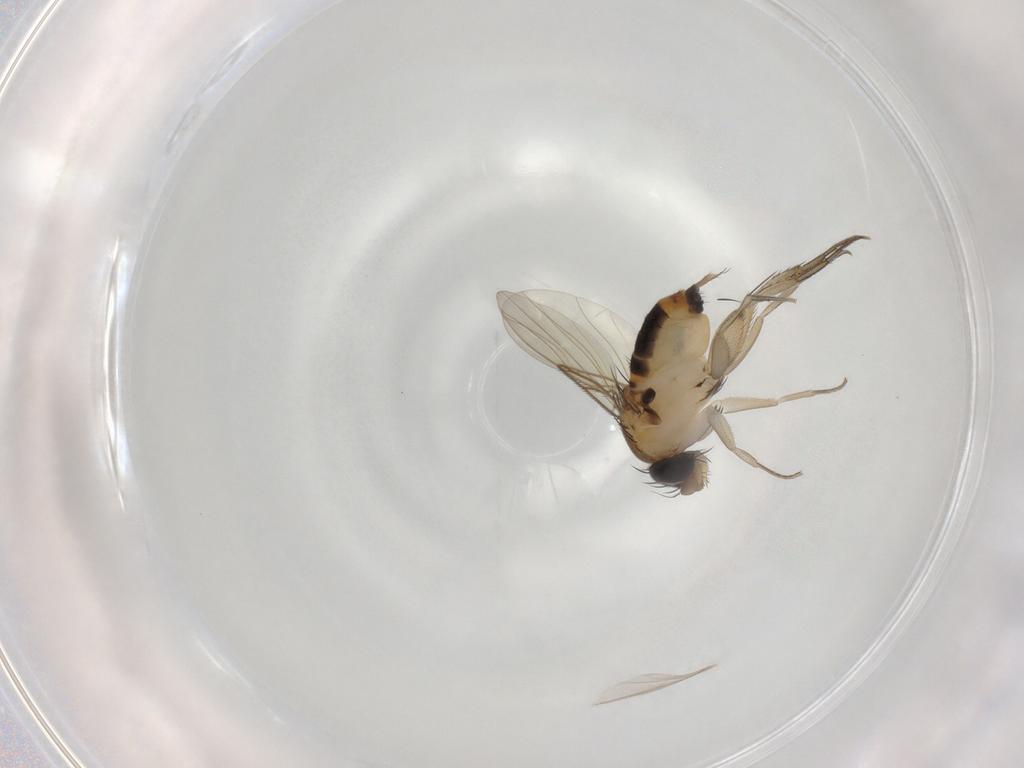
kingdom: Animalia
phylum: Arthropoda
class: Insecta
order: Diptera
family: Phoridae
